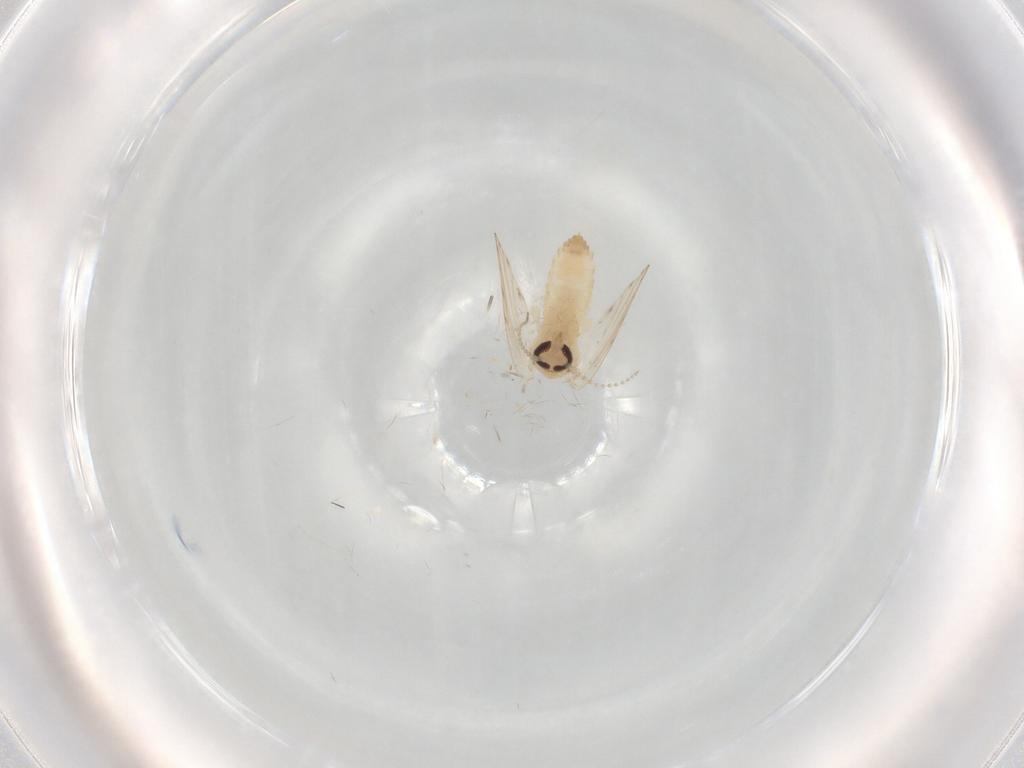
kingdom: Animalia
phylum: Arthropoda
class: Insecta
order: Diptera
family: Psychodidae
